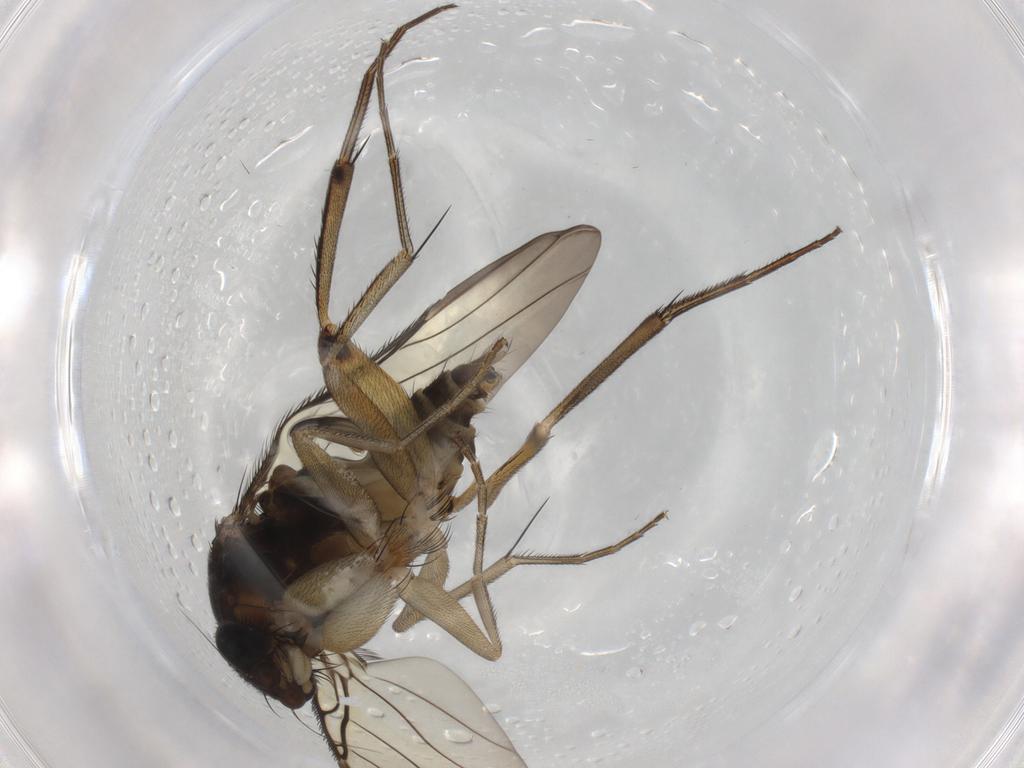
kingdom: Animalia
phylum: Arthropoda
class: Insecta
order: Diptera
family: Phoridae
